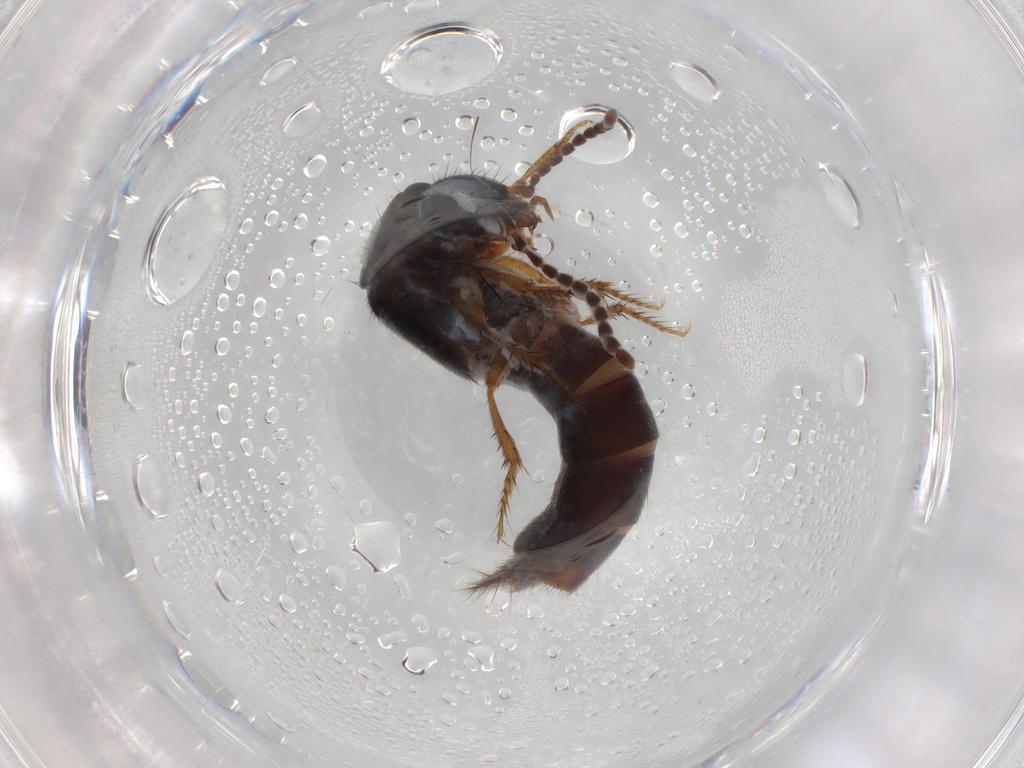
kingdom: Animalia
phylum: Arthropoda
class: Insecta
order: Coleoptera
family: Staphylinidae
